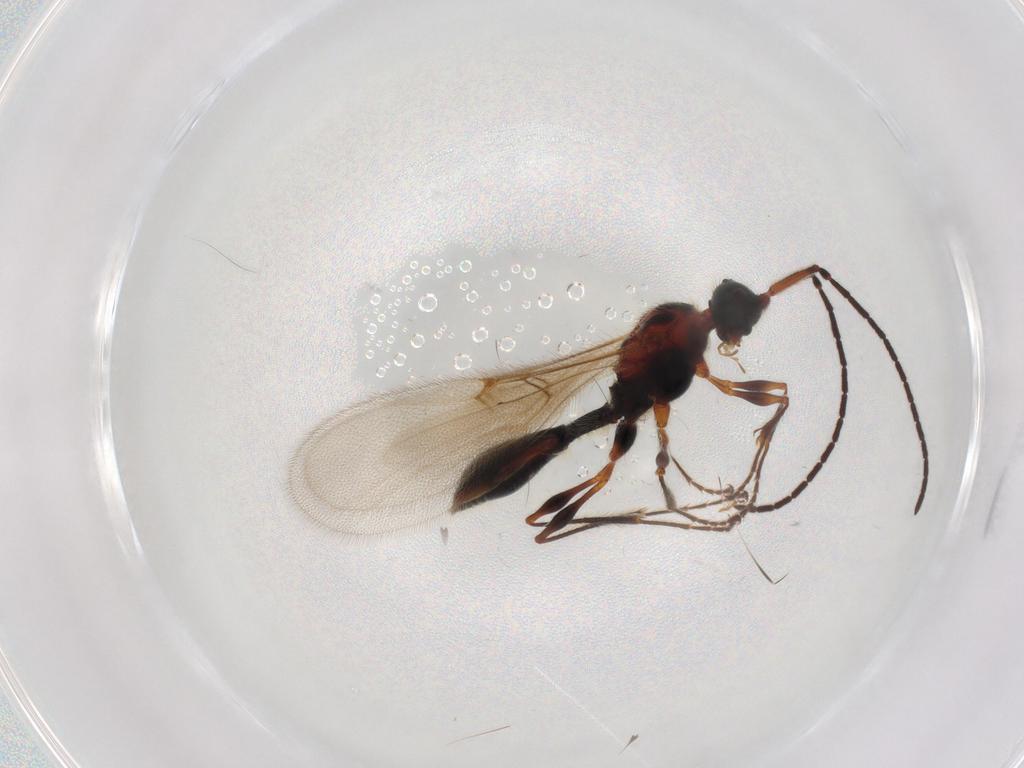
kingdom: Animalia
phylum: Arthropoda
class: Insecta
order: Hymenoptera
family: Diapriidae
